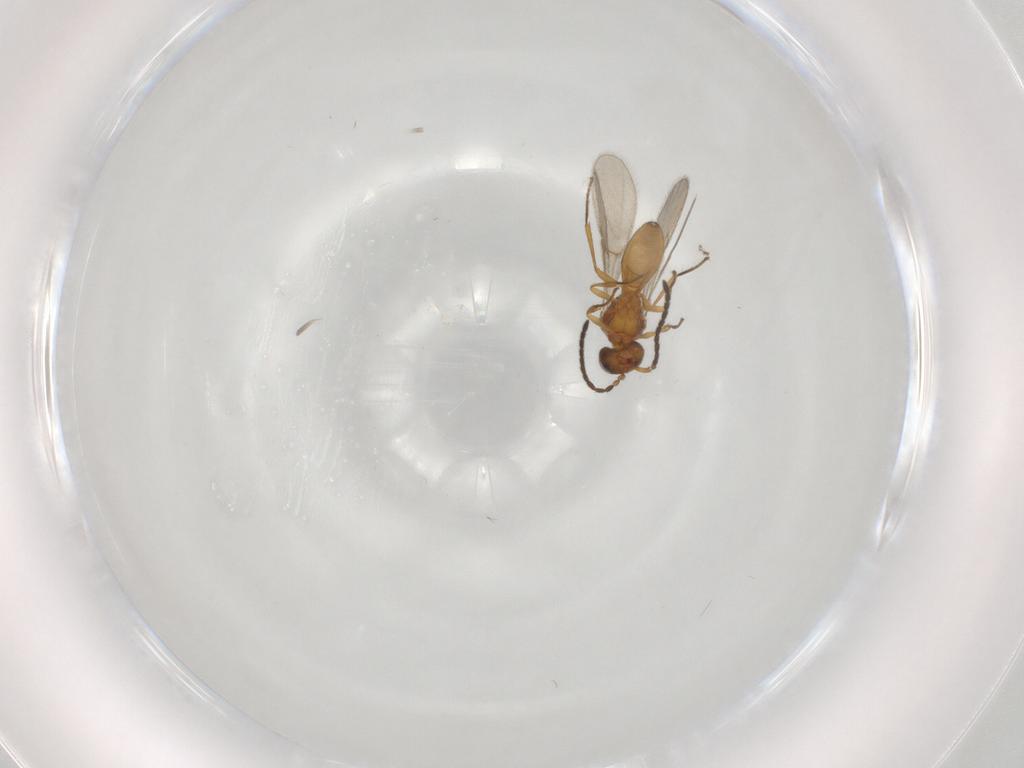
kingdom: Animalia
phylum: Arthropoda
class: Insecta
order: Hymenoptera
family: Scelionidae
